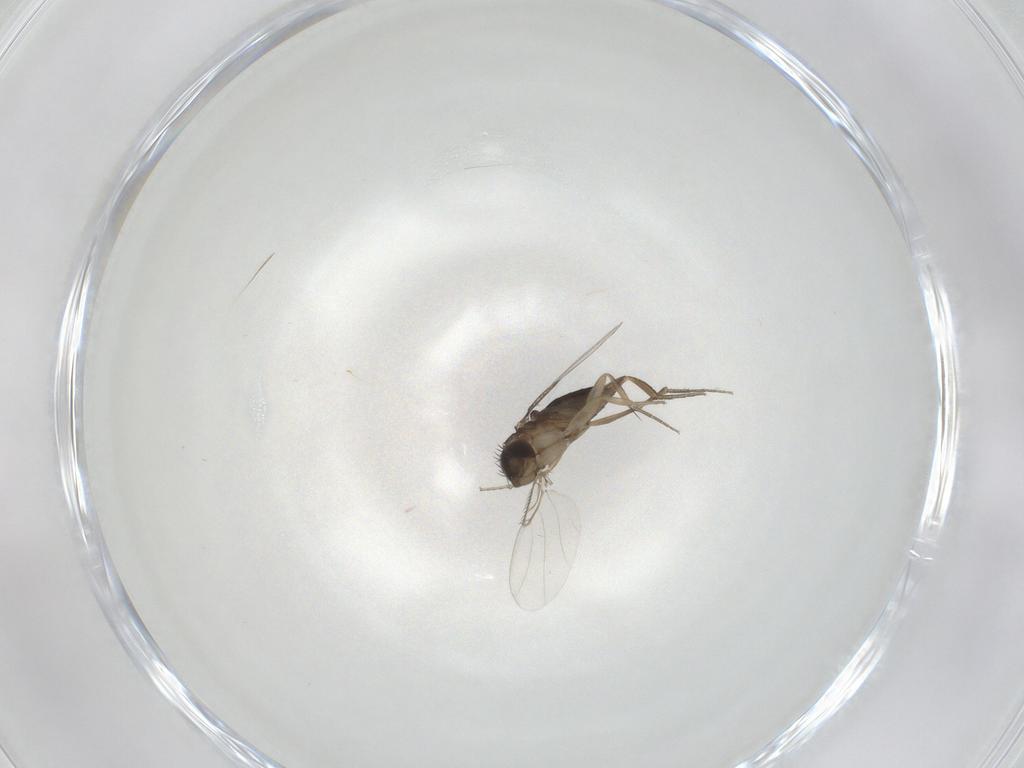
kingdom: Animalia
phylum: Arthropoda
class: Insecta
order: Diptera
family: Phoridae
